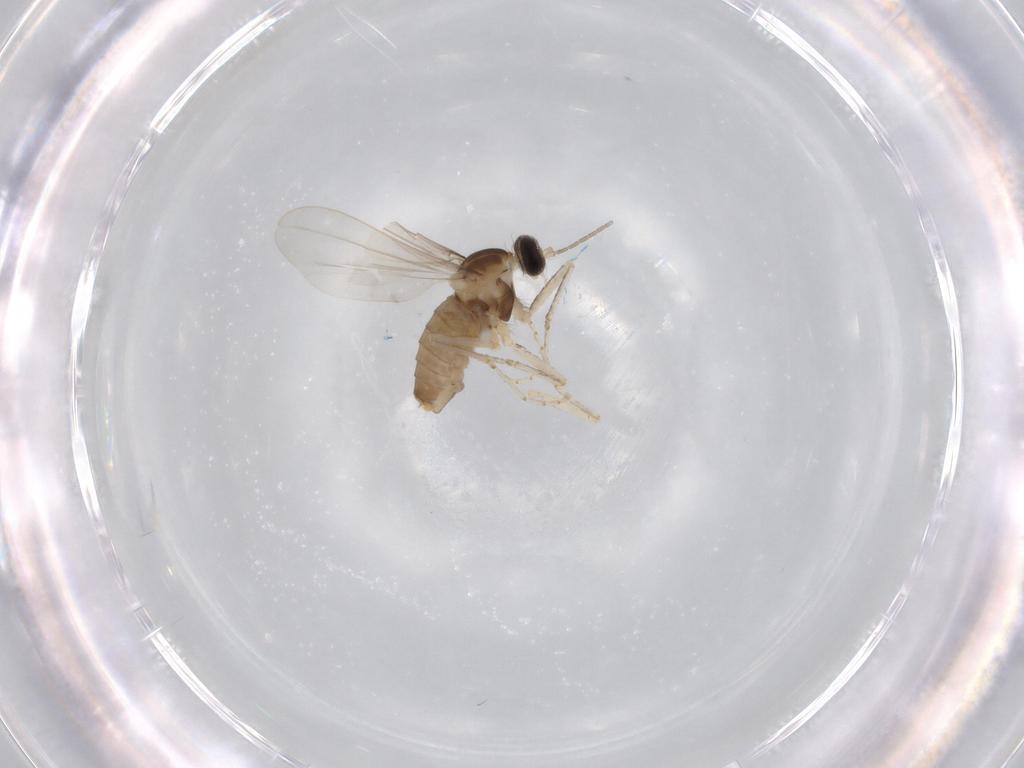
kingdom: Animalia
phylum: Arthropoda
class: Insecta
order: Diptera
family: Cecidomyiidae
